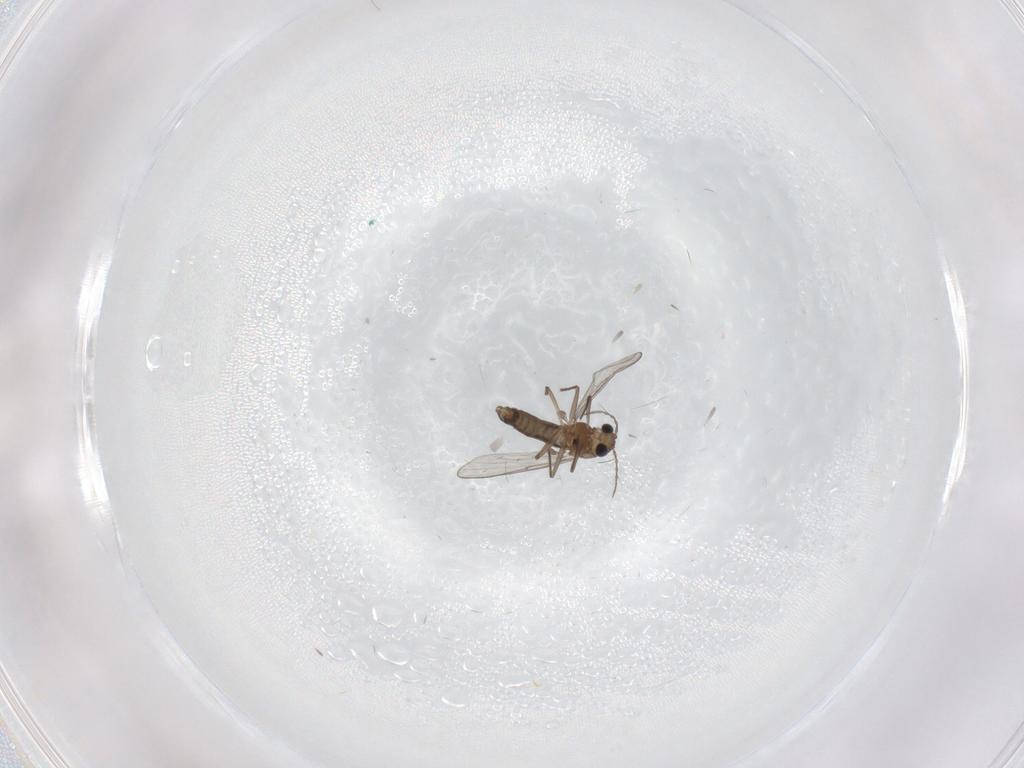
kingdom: Animalia
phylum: Arthropoda
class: Insecta
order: Diptera
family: Chironomidae
